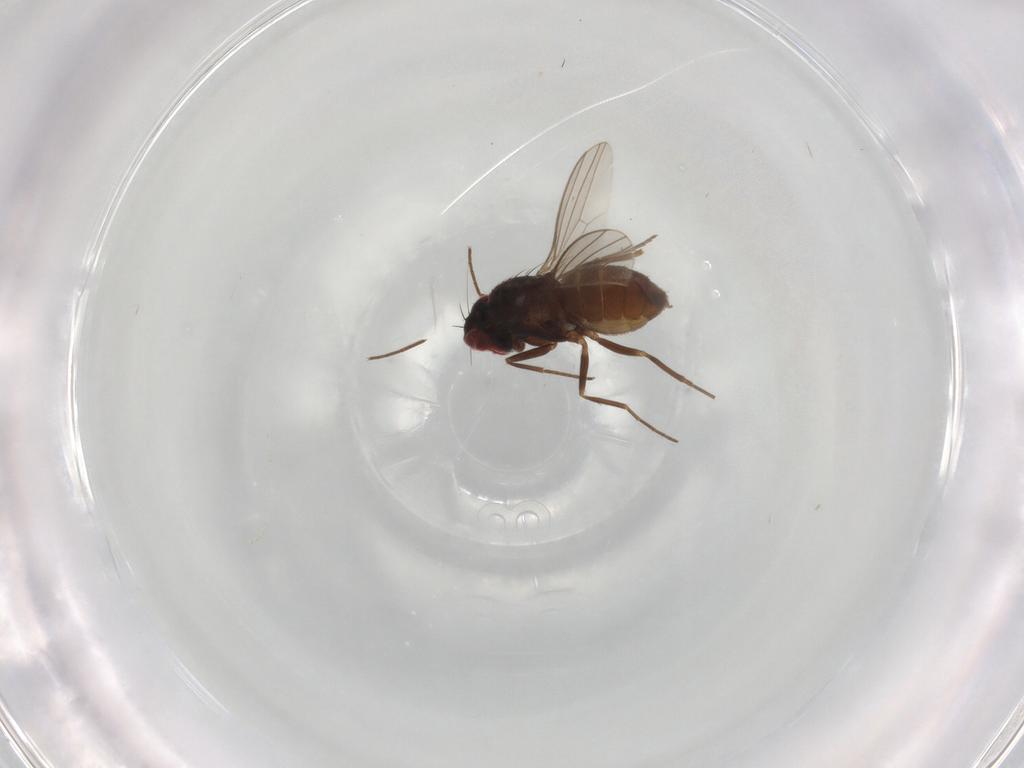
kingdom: Animalia
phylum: Arthropoda
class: Insecta
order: Diptera
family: Dolichopodidae
